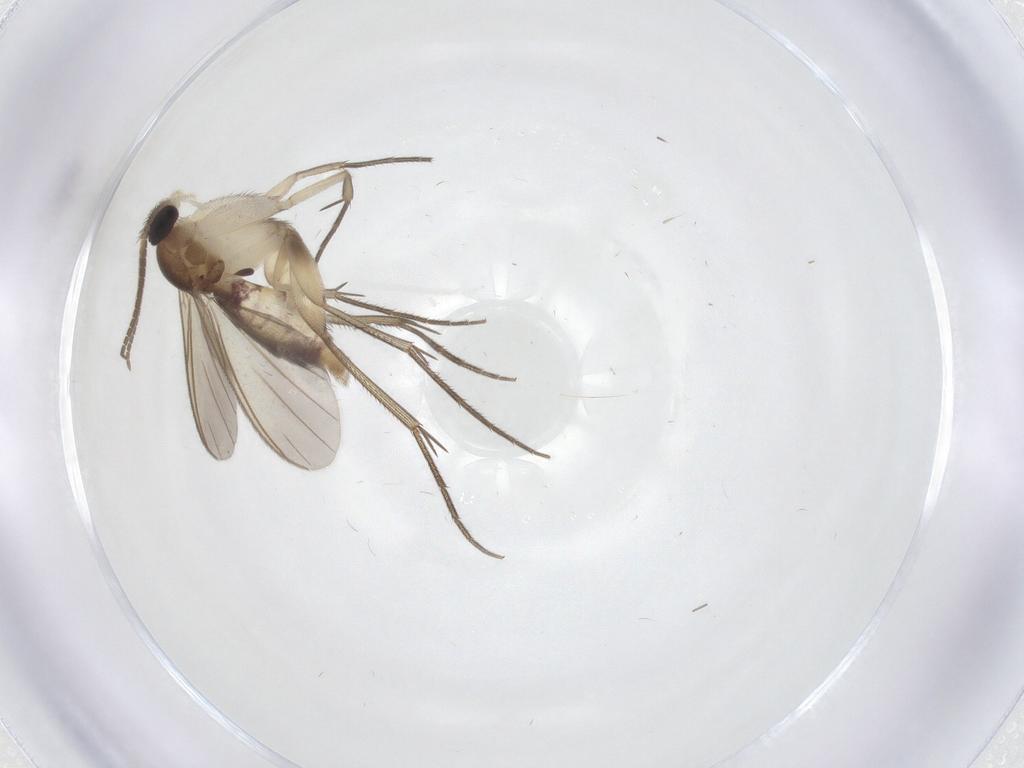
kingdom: Animalia
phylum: Arthropoda
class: Insecta
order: Diptera
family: Mycetophilidae
